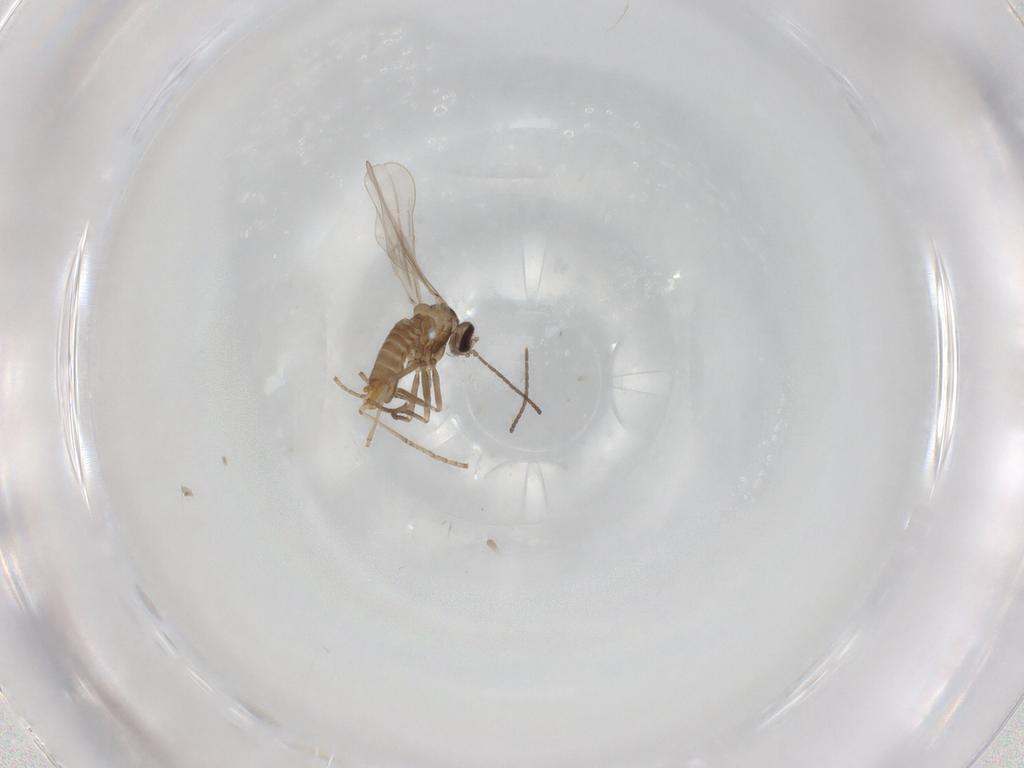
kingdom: Animalia
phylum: Arthropoda
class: Insecta
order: Diptera
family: Cecidomyiidae
